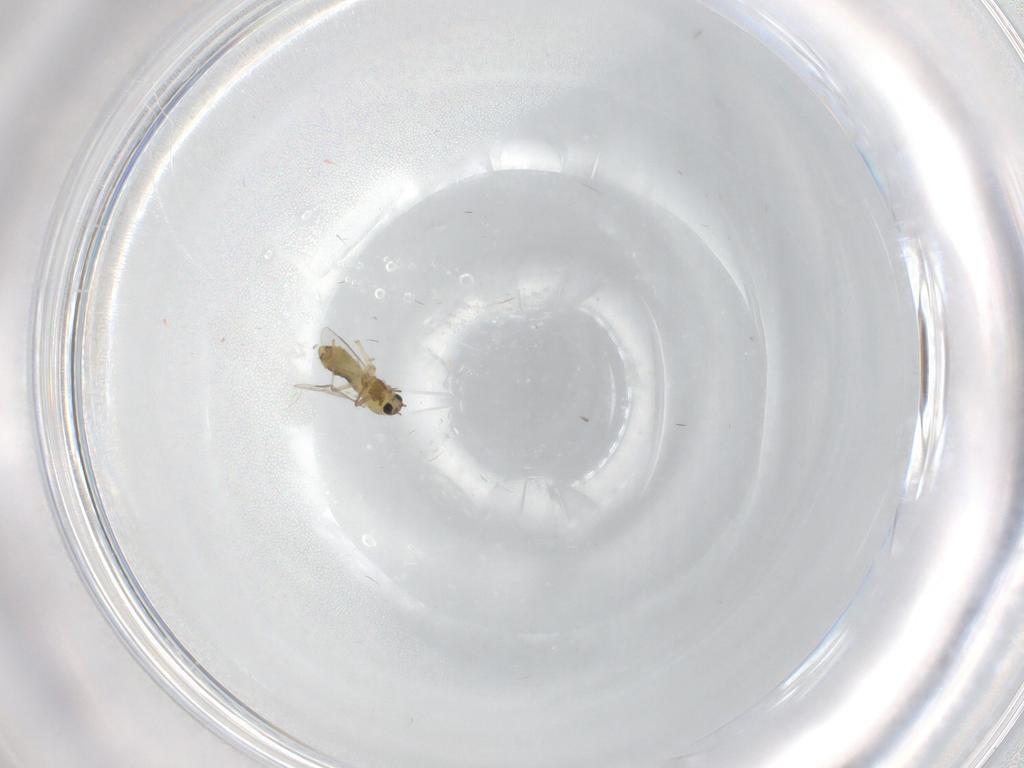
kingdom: Animalia
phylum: Arthropoda
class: Insecta
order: Diptera
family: Chironomidae
